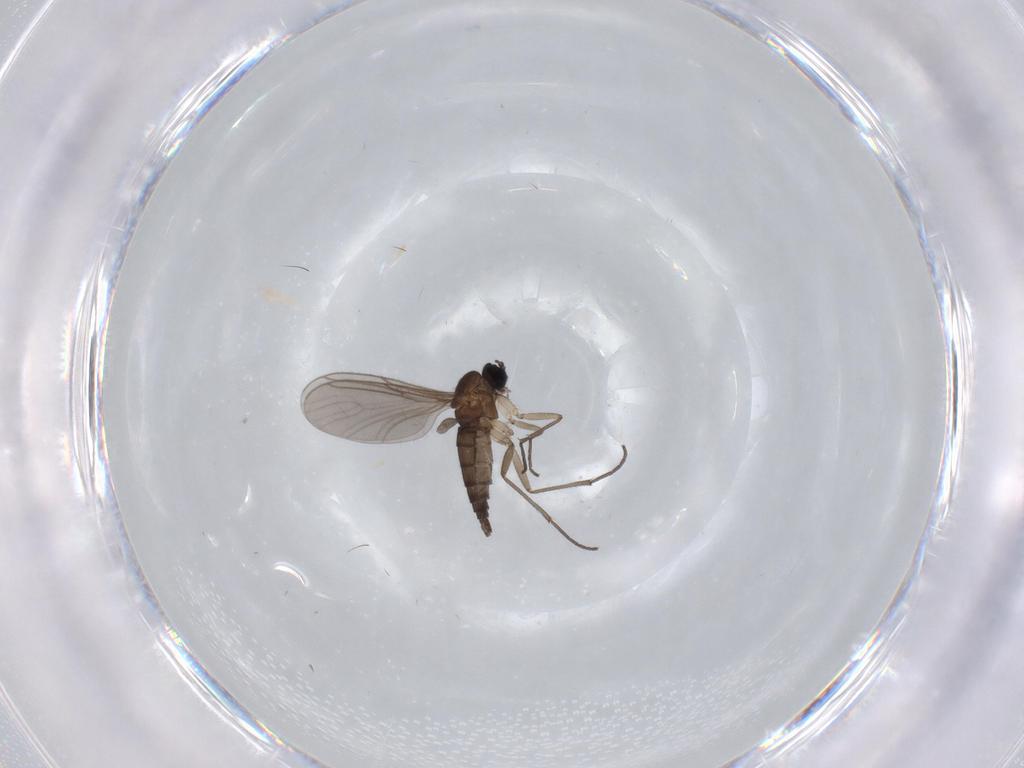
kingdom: Animalia
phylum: Arthropoda
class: Insecta
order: Diptera
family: Sciaridae
